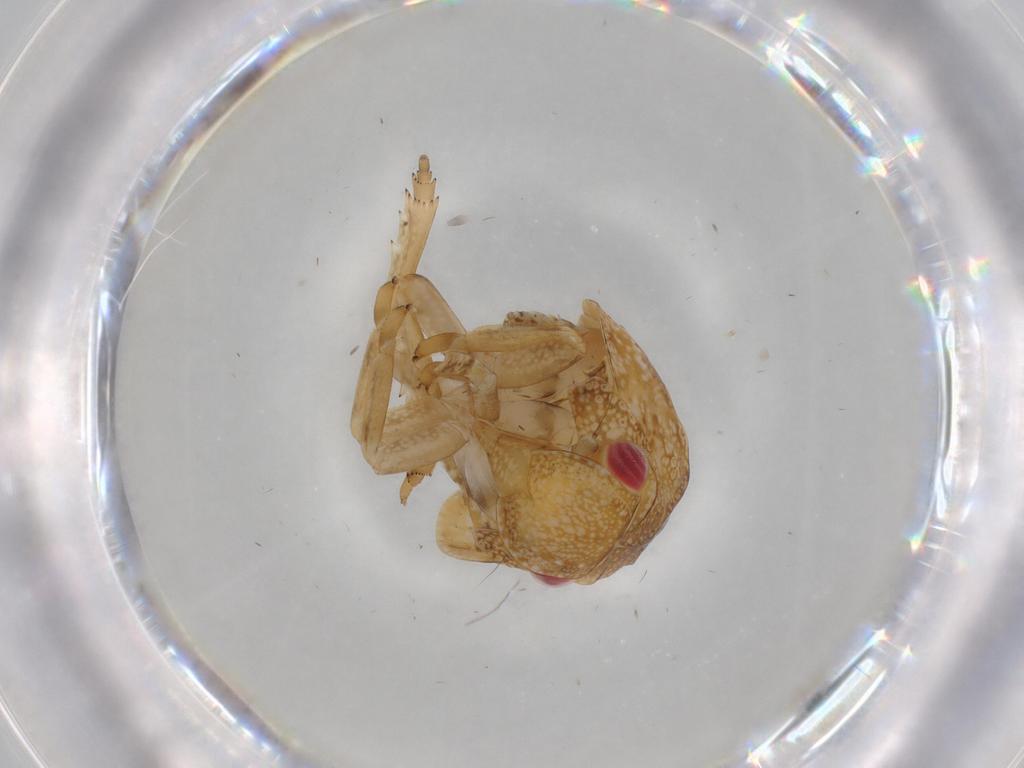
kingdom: Animalia
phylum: Arthropoda
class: Insecta
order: Hemiptera
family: Acanaloniidae
